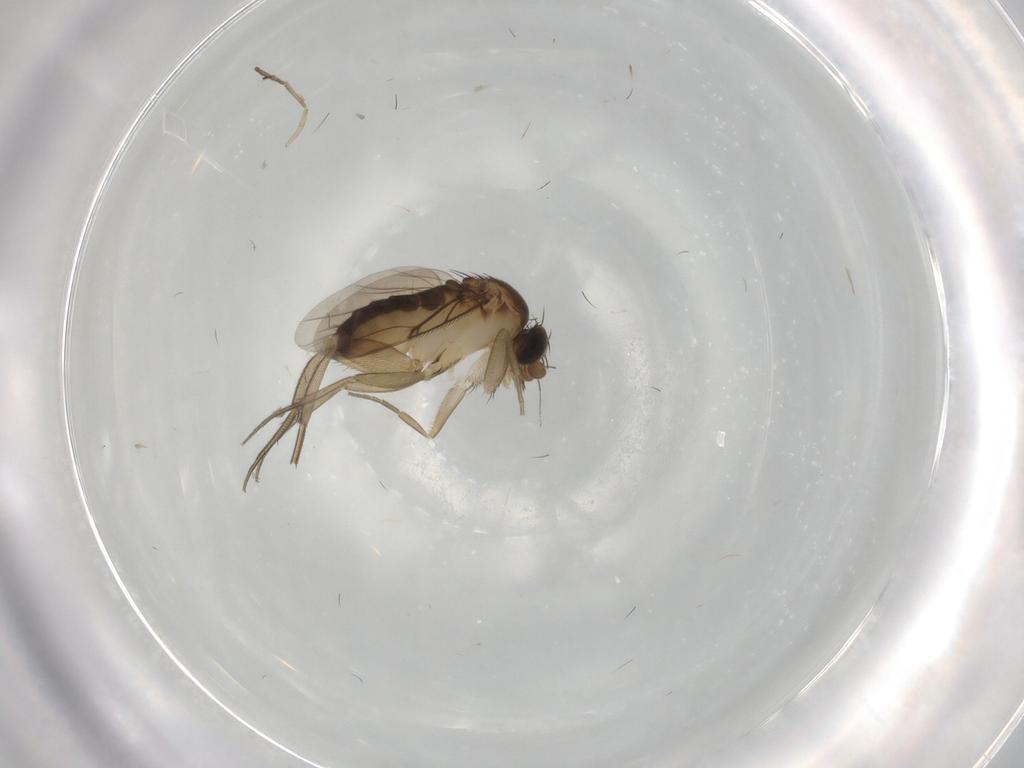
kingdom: Animalia
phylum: Arthropoda
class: Insecta
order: Diptera
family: Phoridae
